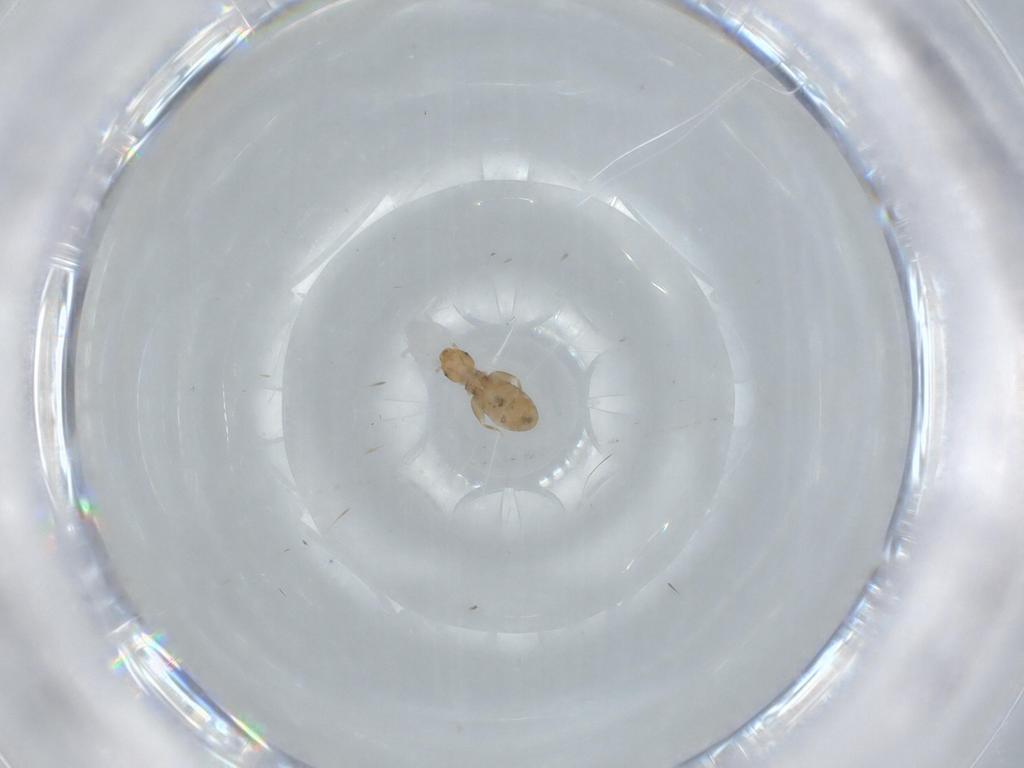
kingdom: Animalia
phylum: Arthropoda
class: Insecta
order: Psocodea
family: Liposcelididae
